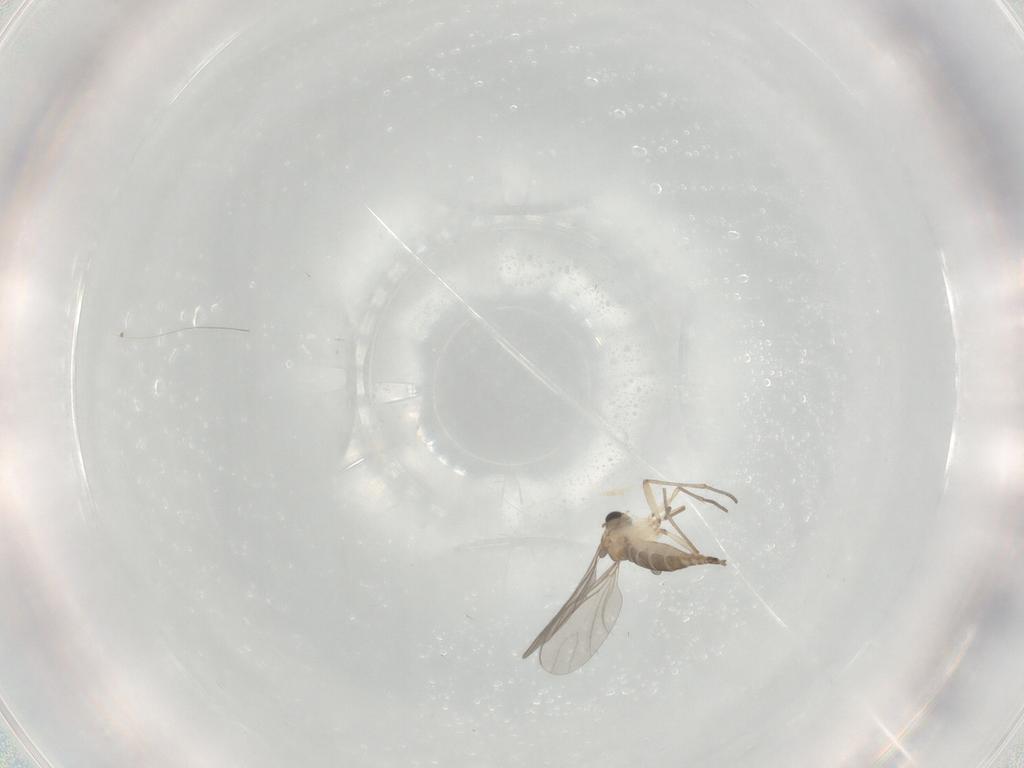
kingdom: Animalia
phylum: Arthropoda
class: Insecta
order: Diptera
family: Sciaridae
